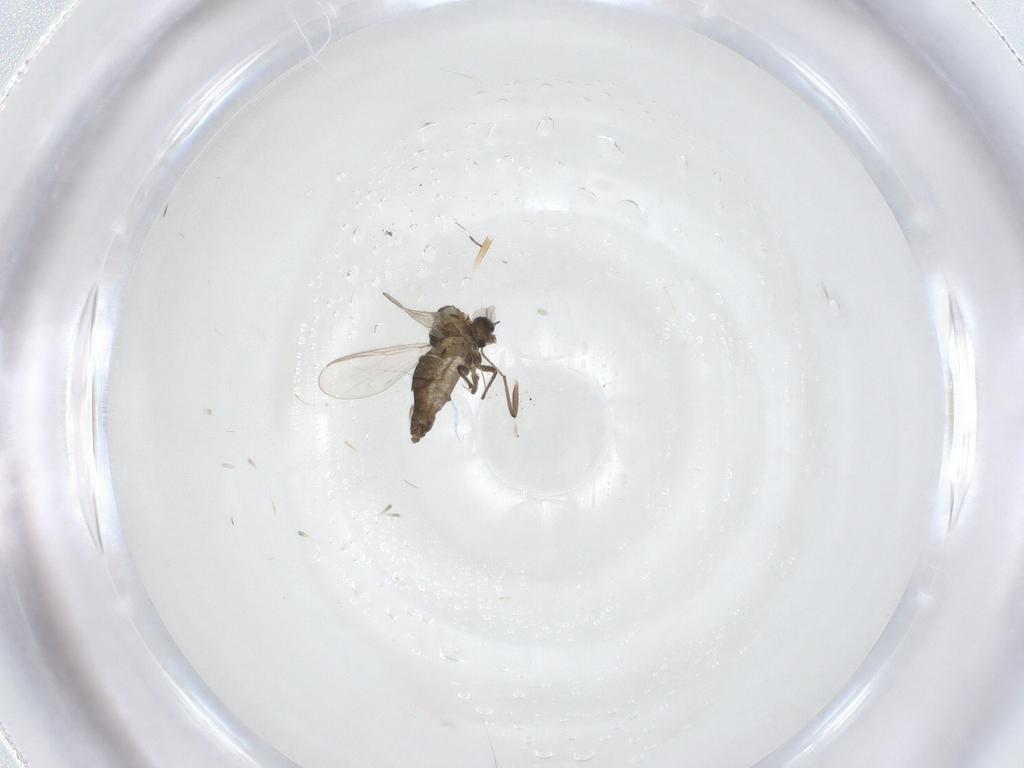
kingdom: Animalia
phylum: Arthropoda
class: Insecta
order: Diptera
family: Chironomidae
